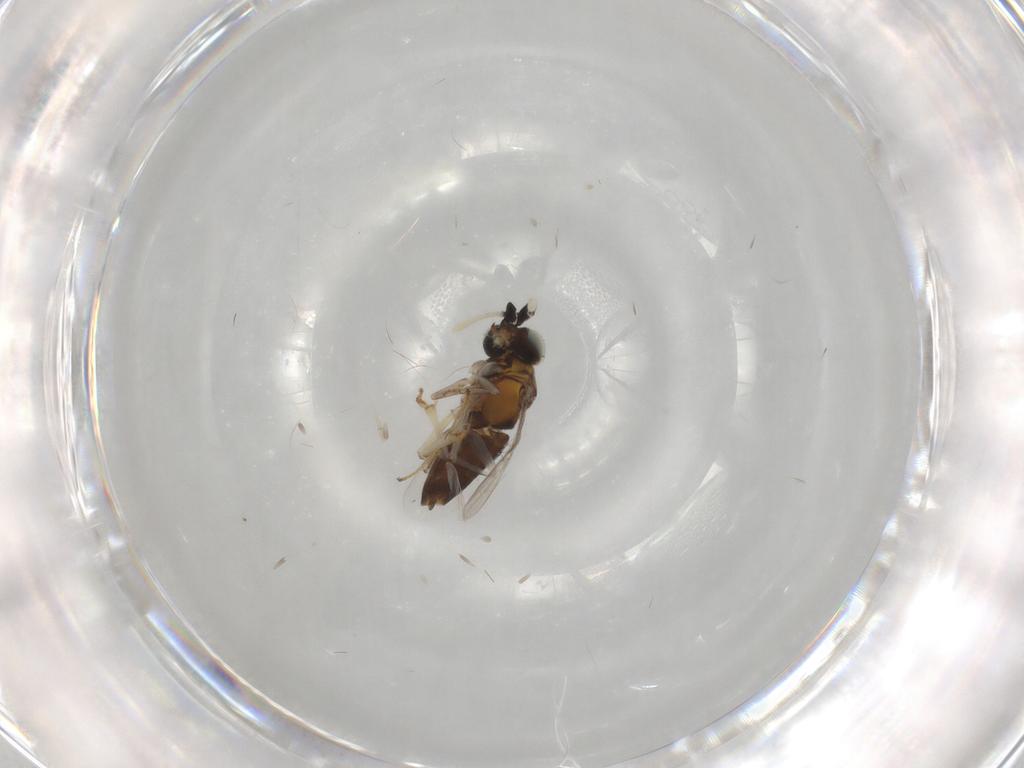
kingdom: Animalia
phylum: Arthropoda
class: Insecta
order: Hymenoptera
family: Encyrtidae
